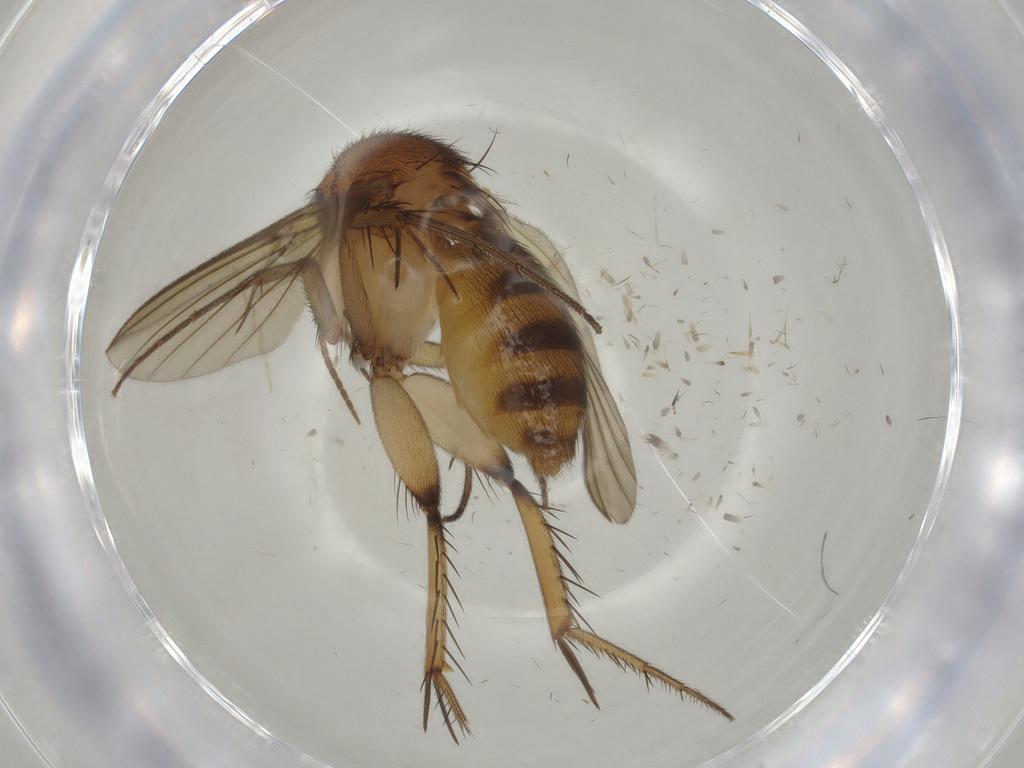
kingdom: Animalia
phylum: Arthropoda
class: Insecta
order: Diptera
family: Mycetophilidae
